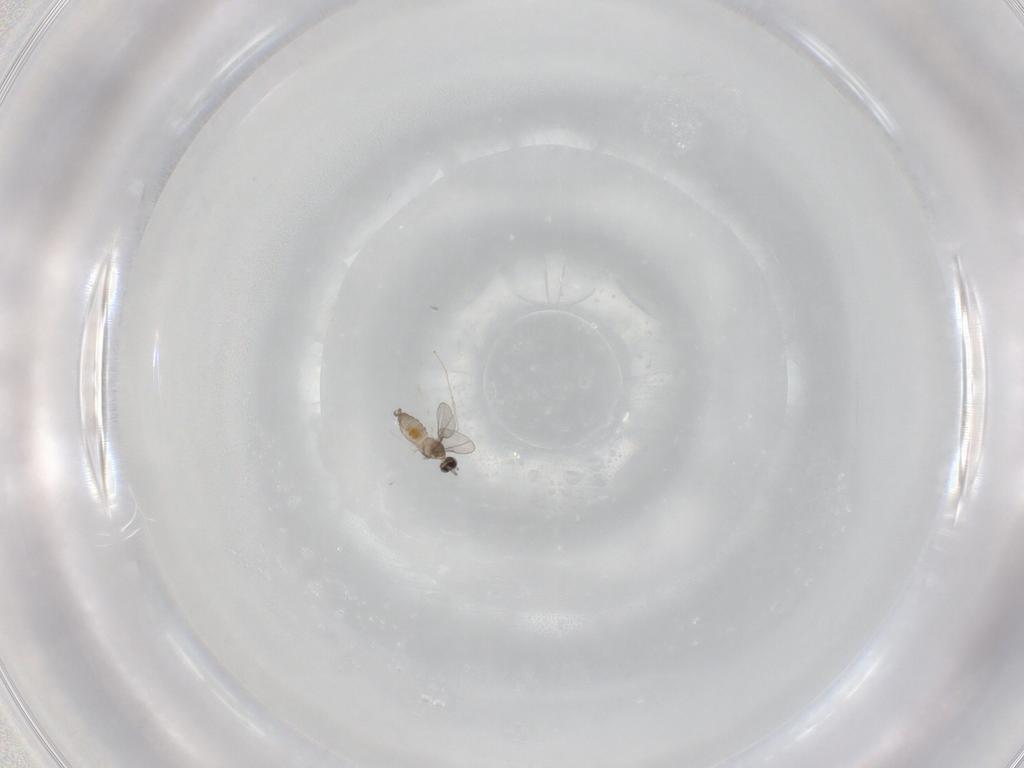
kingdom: Animalia
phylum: Arthropoda
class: Insecta
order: Diptera
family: Cecidomyiidae
